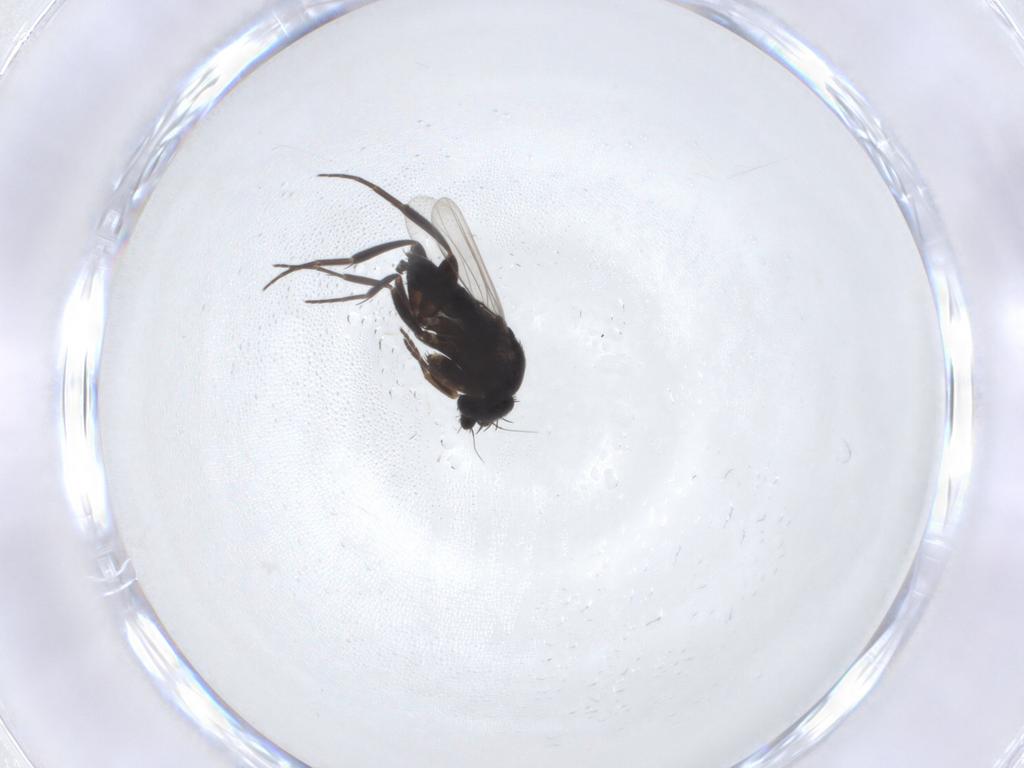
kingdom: Animalia
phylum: Arthropoda
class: Insecta
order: Diptera
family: Phoridae
